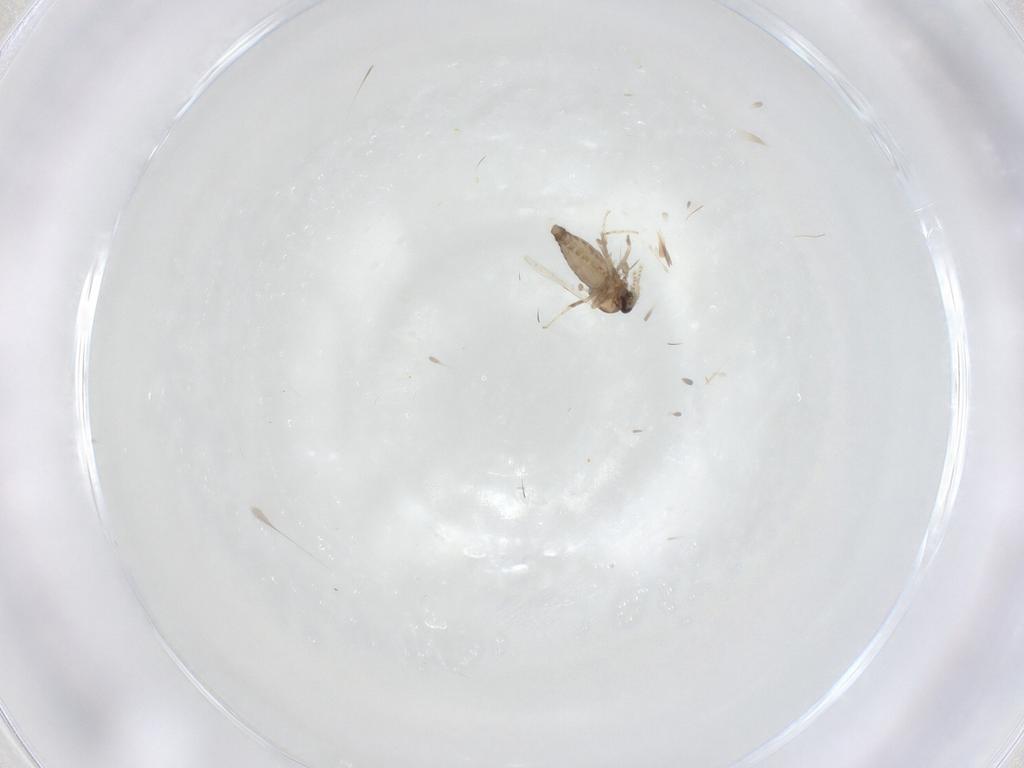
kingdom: Animalia
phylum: Arthropoda
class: Insecta
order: Diptera
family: Ceratopogonidae
